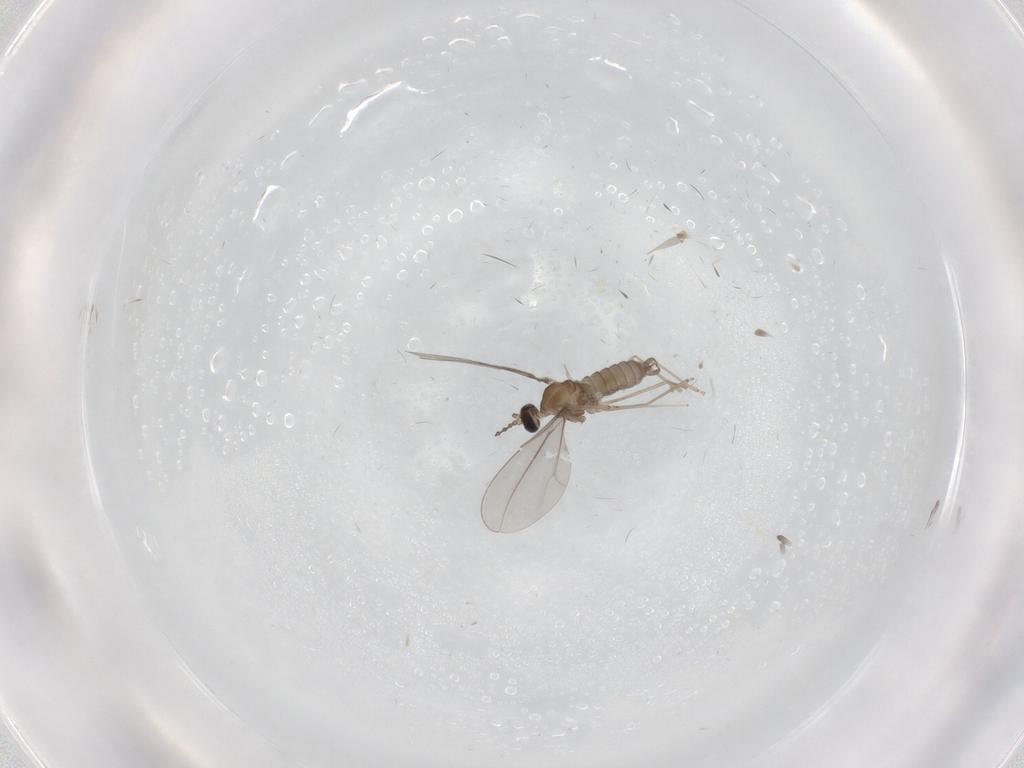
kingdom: Animalia
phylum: Arthropoda
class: Insecta
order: Diptera
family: Cecidomyiidae
